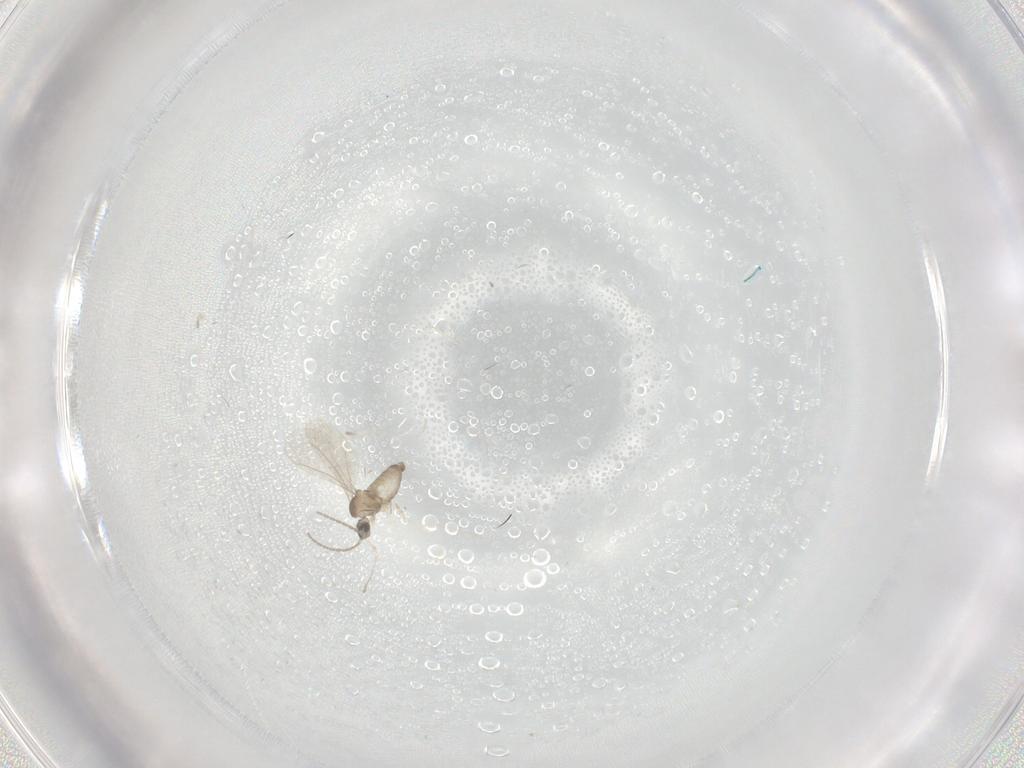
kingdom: Animalia
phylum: Arthropoda
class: Insecta
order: Diptera
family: Cecidomyiidae
